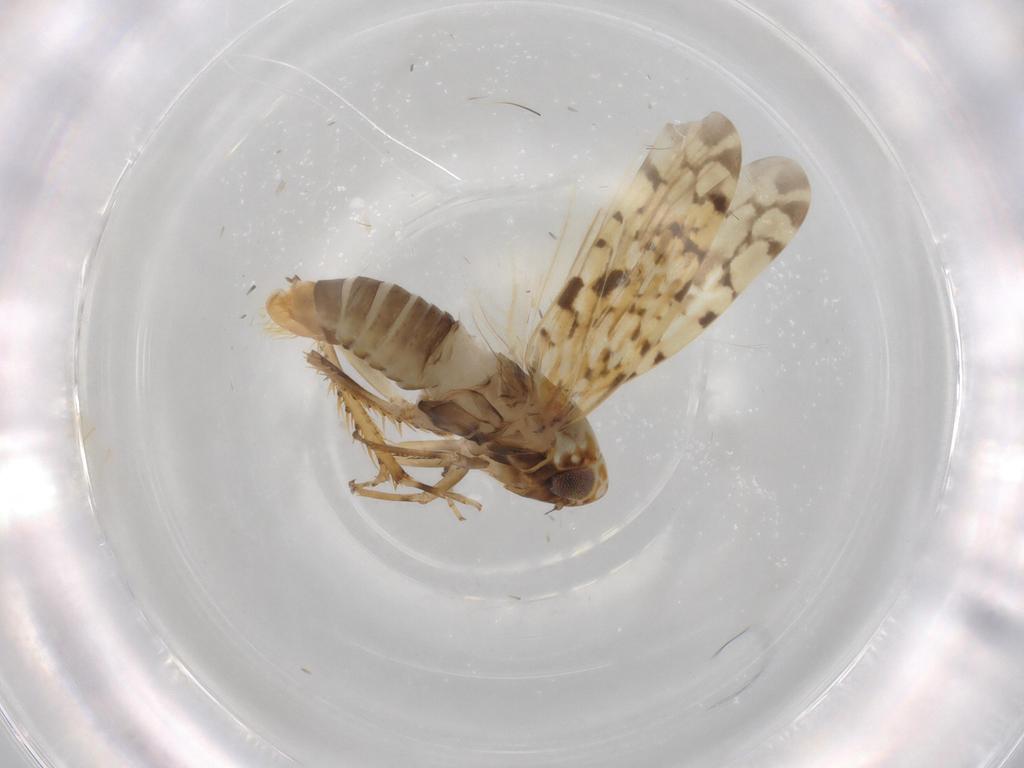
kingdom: Animalia
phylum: Arthropoda
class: Insecta
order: Hemiptera
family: Cicadellidae
